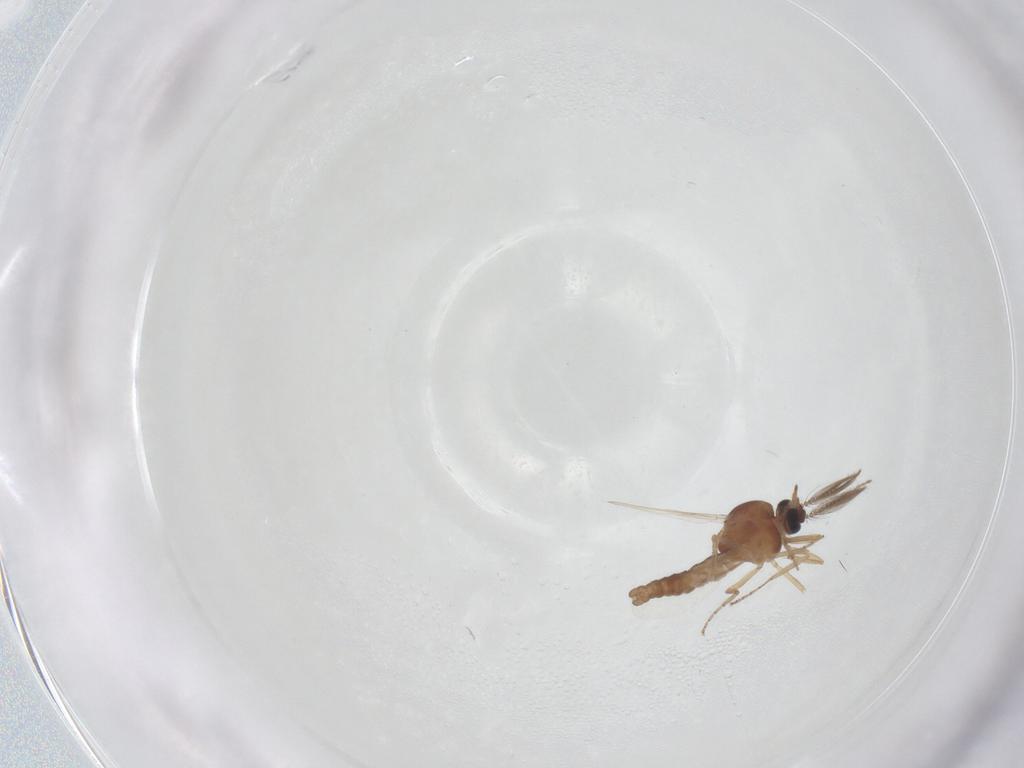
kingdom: Animalia
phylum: Arthropoda
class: Insecta
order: Diptera
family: Ceratopogonidae
